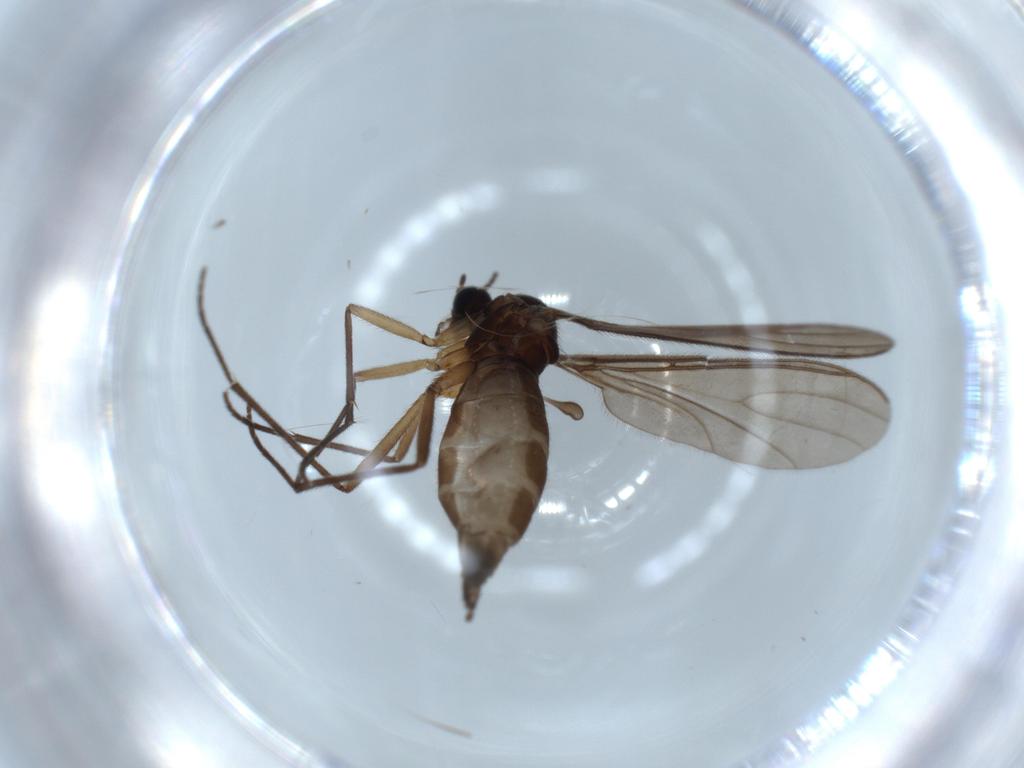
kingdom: Animalia
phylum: Arthropoda
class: Insecta
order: Diptera
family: Sciaridae
